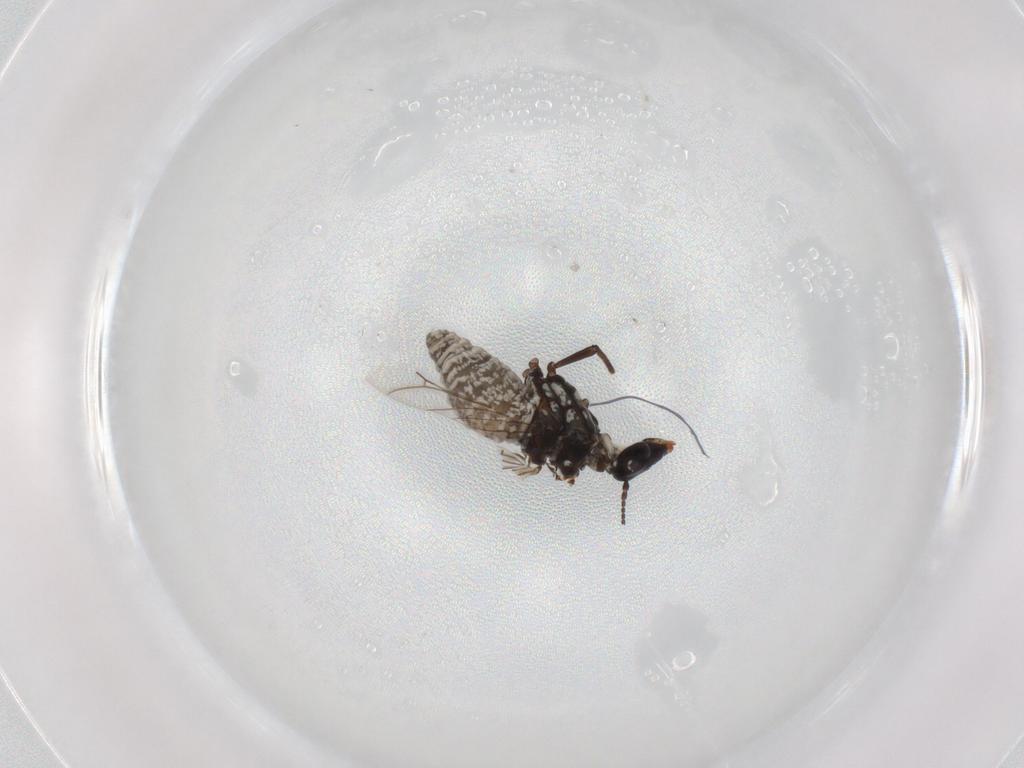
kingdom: Animalia
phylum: Arthropoda
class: Insecta
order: Neuroptera
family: Coniopterygidae
